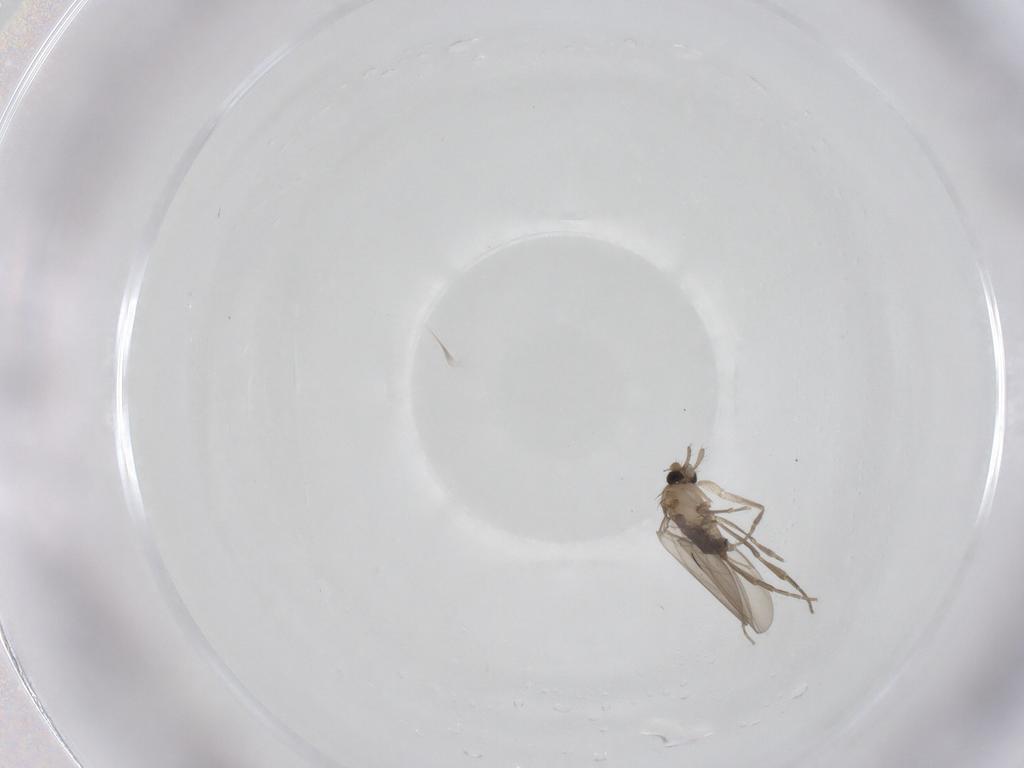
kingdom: Animalia
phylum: Arthropoda
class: Insecta
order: Diptera
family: Phoridae
